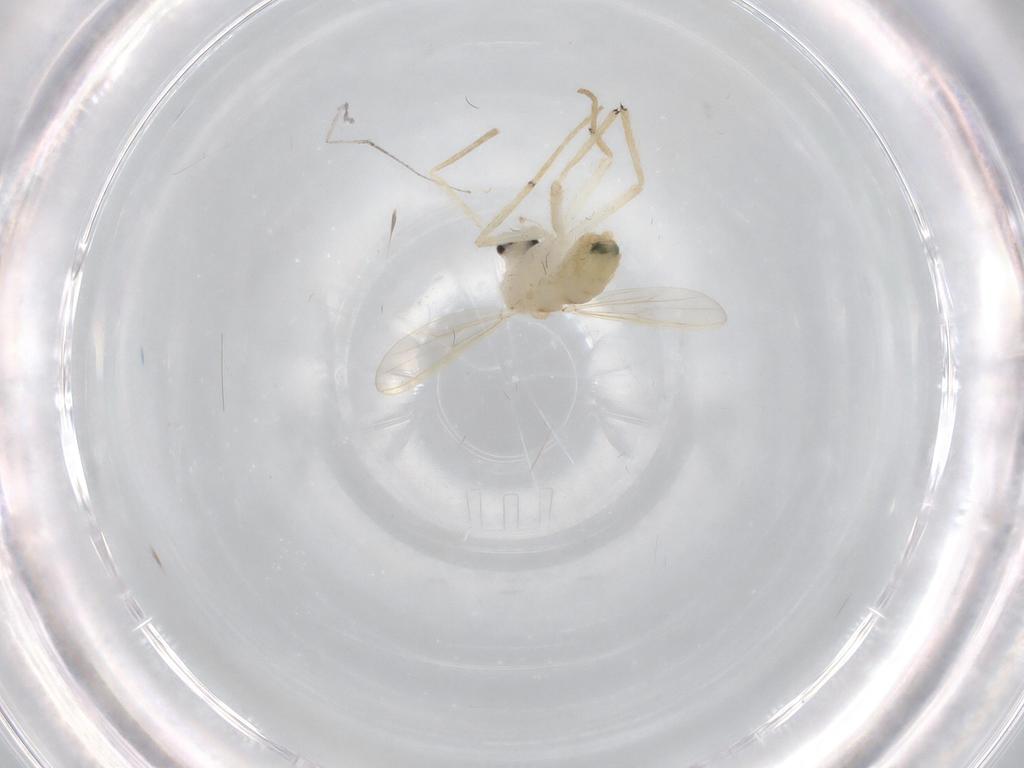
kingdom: Animalia
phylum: Arthropoda
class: Insecta
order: Diptera
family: Chironomidae
